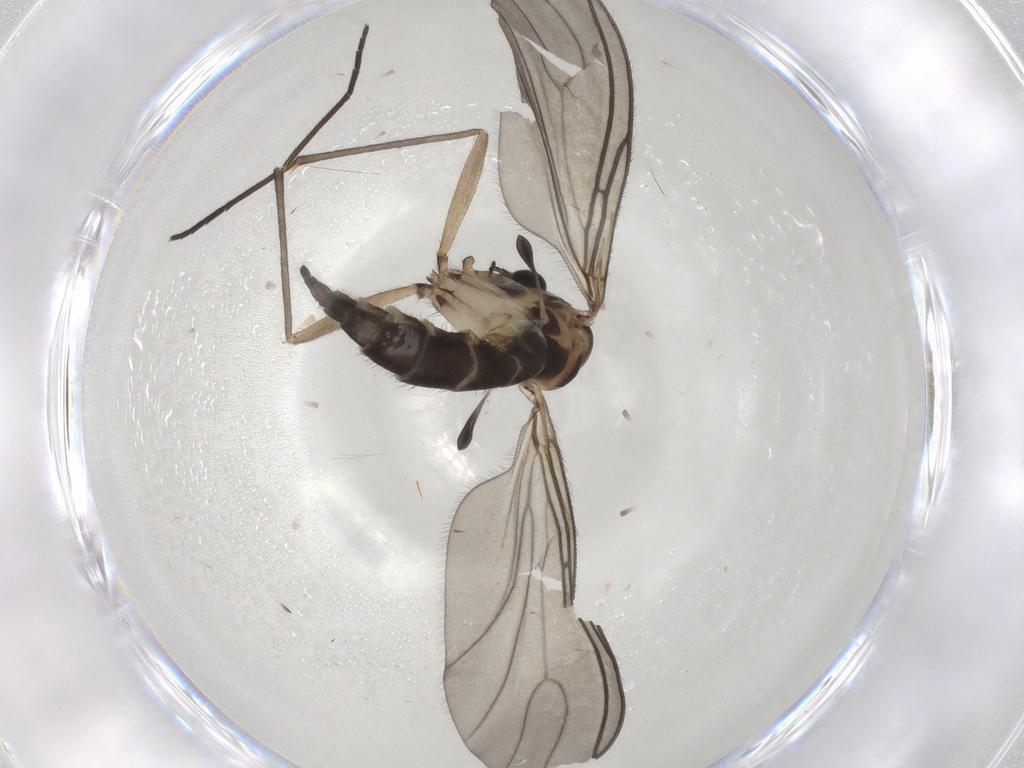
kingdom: Animalia
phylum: Arthropoda
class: Insecta
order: Diptera
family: Sciaridae
